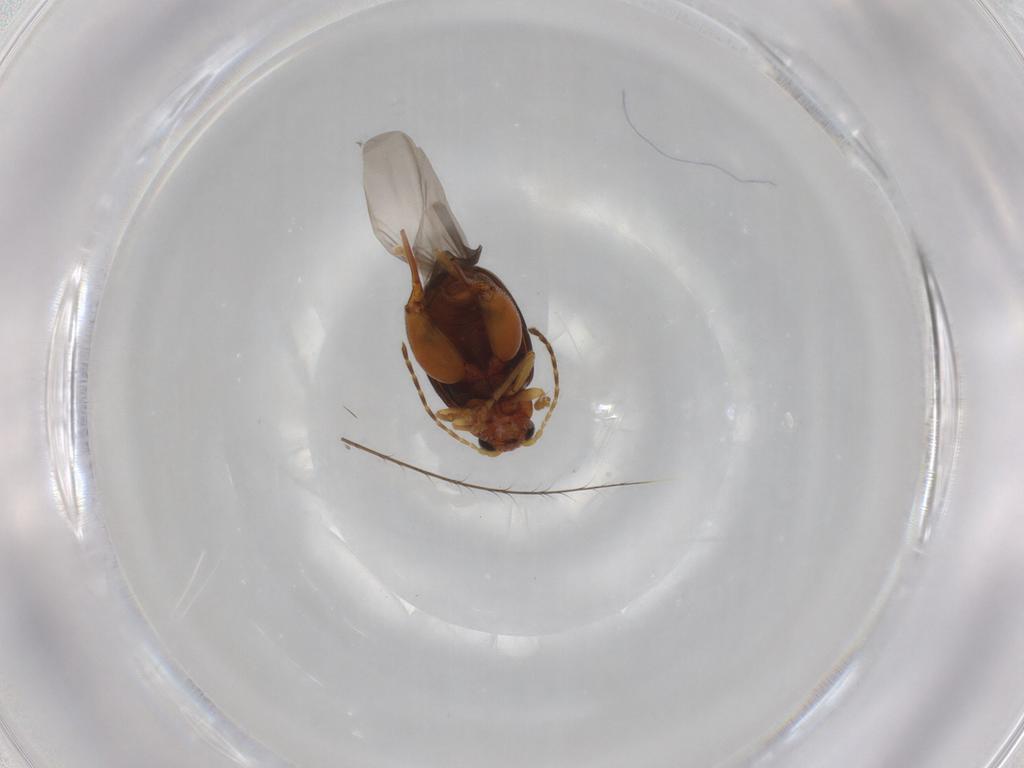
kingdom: Animalia
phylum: Arthropoda
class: Insecta
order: Coleoptera
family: Chrysomelidae
